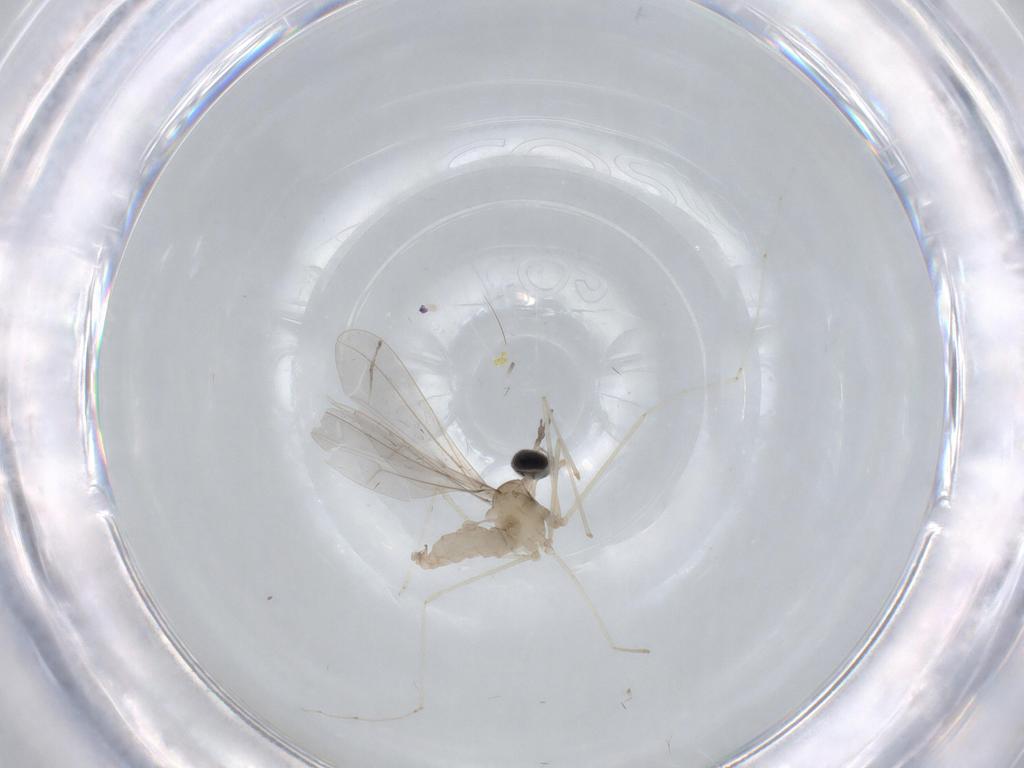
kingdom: Animalia
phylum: Arthropoda
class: Insecta
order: Diptera
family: Cecidomyiidae
